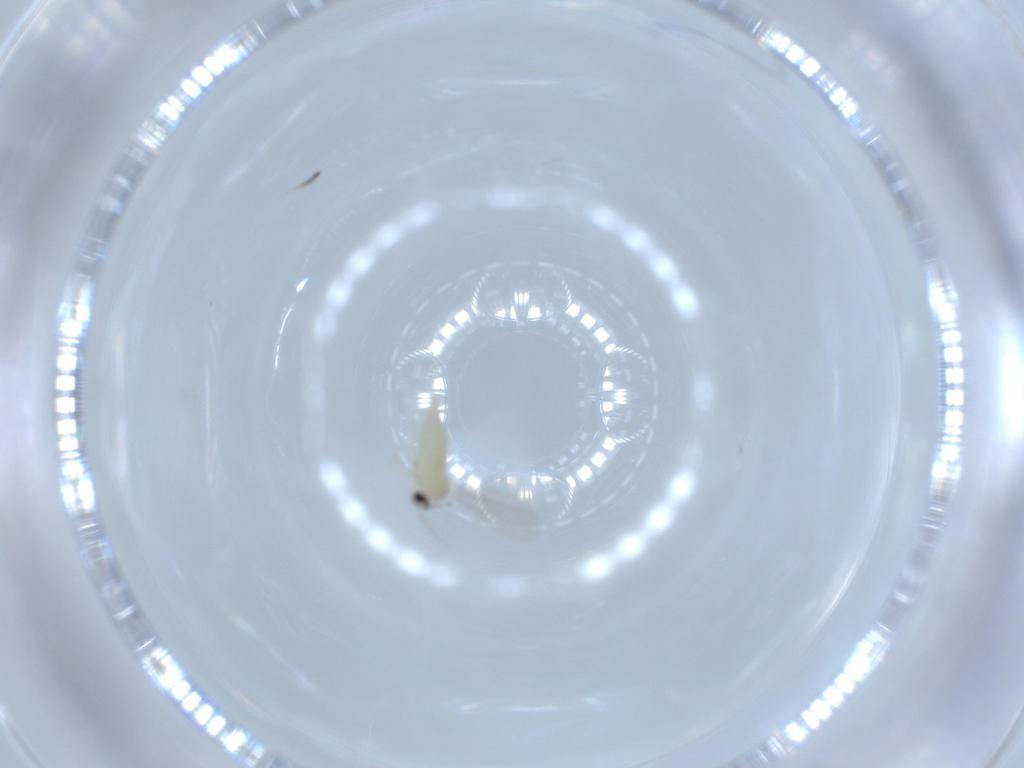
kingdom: Animalia
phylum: Arthropoda
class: Insecta
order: Diptera
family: Cecidomyiidae
